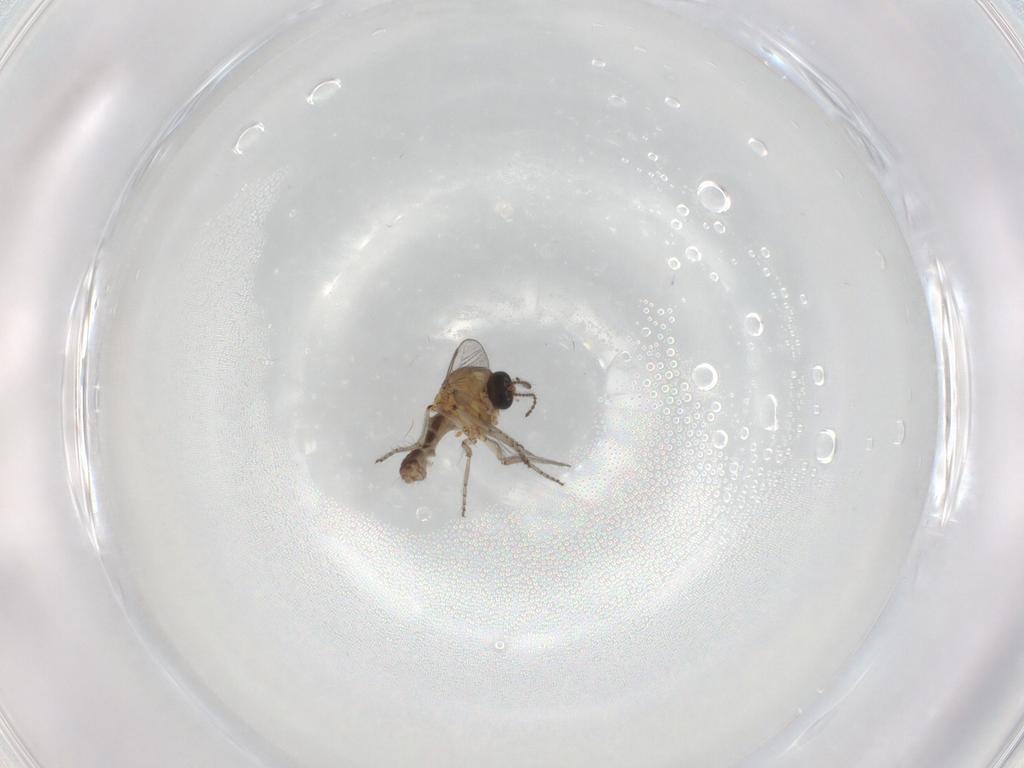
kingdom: Animalia
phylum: Arthropoda
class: Insecta
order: Diptera
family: Ceratopogonidae
